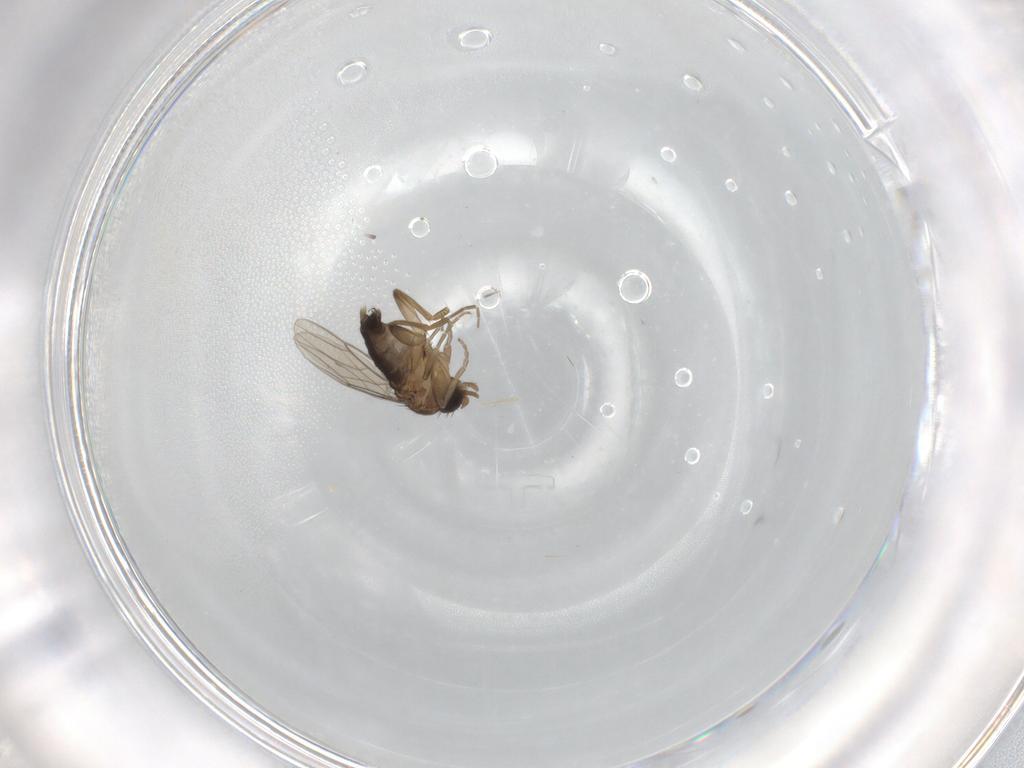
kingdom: Animalia
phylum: Arthropoda
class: Insecta
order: Diptera
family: Phoridae
